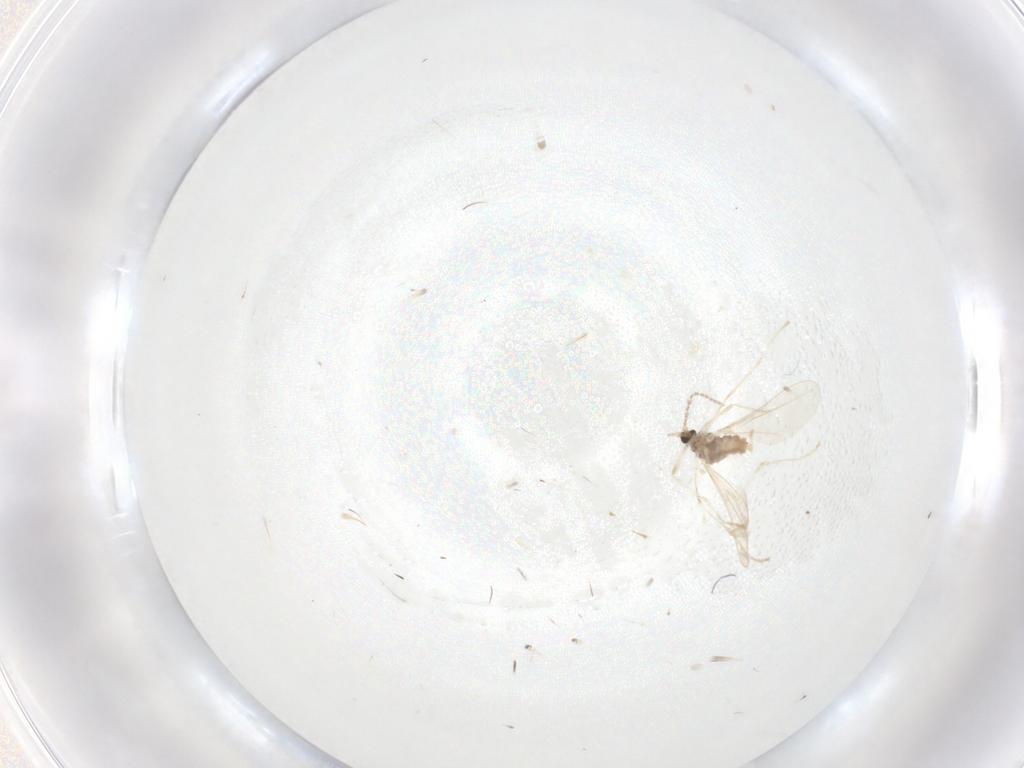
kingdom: Animalia
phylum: Arthropoda
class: Insecta
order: Diptera
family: Cecidomyiidae
